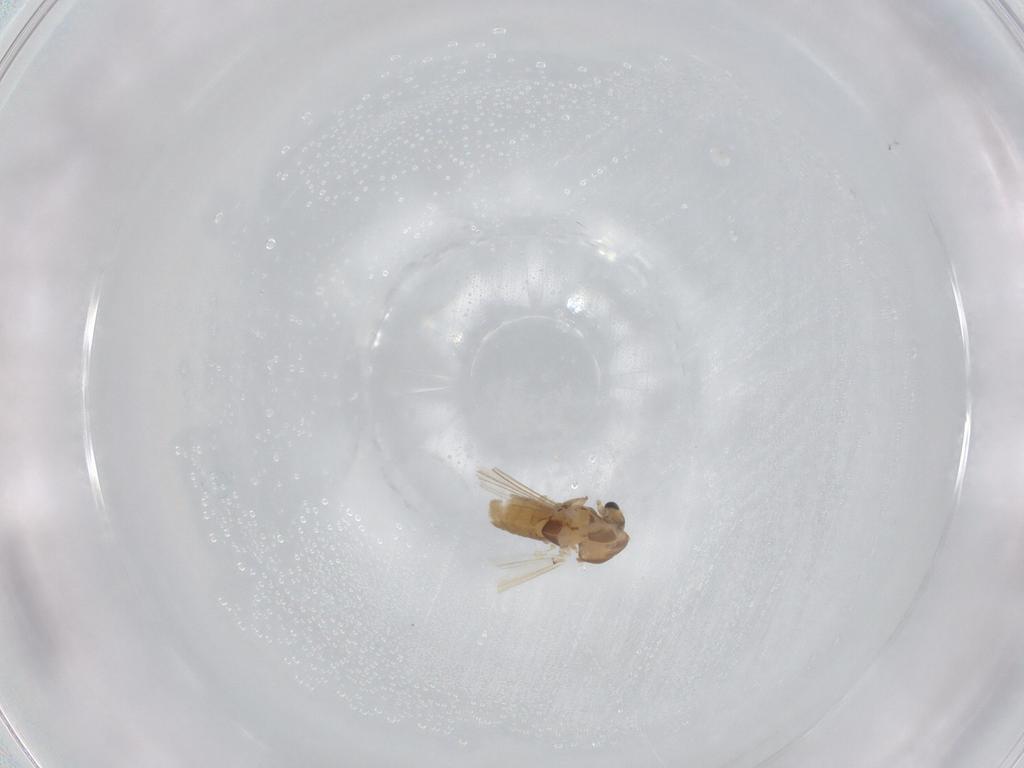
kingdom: Animalia
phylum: Arthropoda
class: Insecta
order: Diptera
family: Chironomidae
